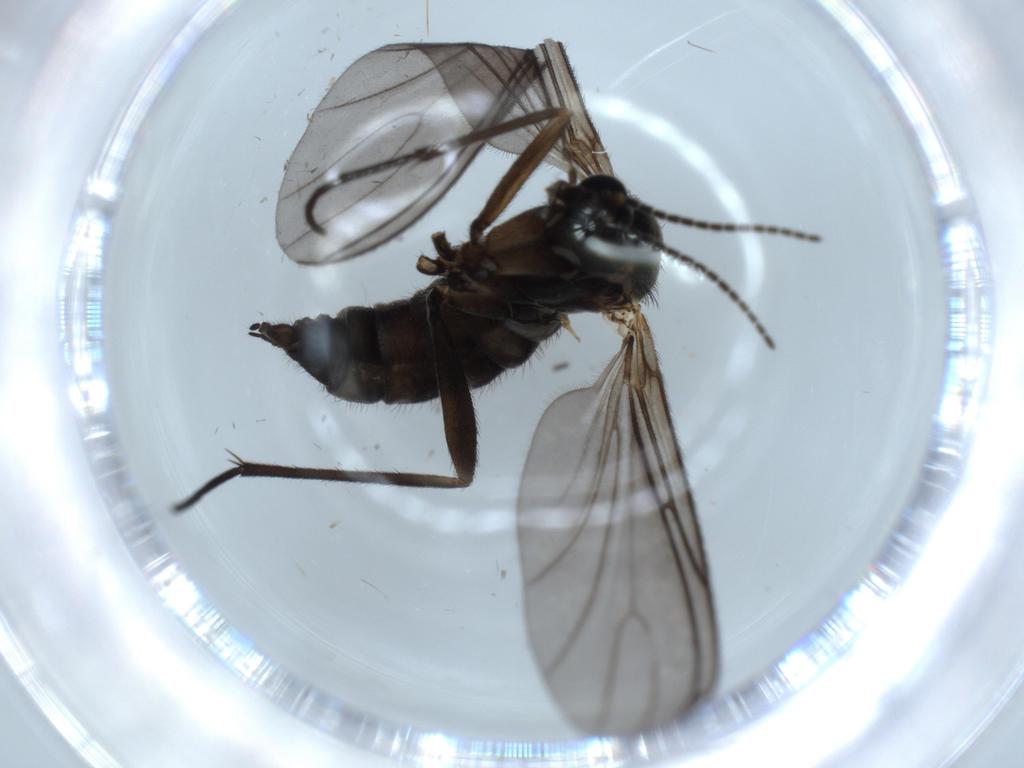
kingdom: Animalia
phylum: Arthropoda
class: Insecta
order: Diptera
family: Sciaridae
